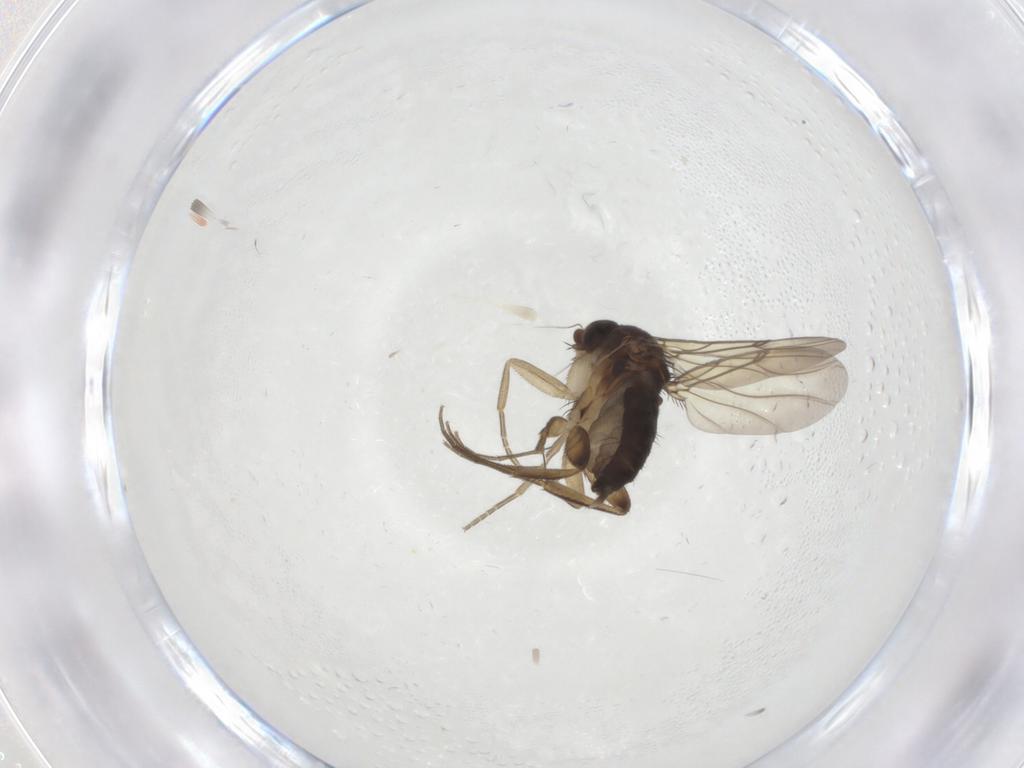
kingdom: Animalia
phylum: Arthropoda
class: Insecta
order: Diptera
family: Phoridae
